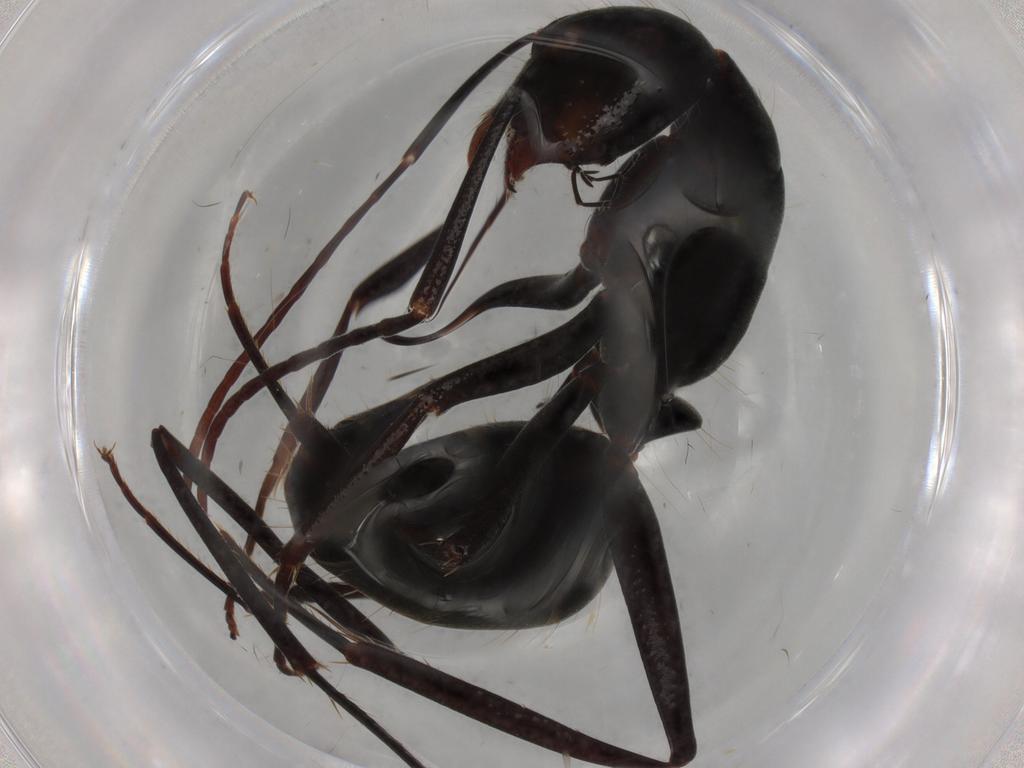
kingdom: Animalia
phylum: Arthropoda
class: Insecta
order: Hymenoptera
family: Formicidae
